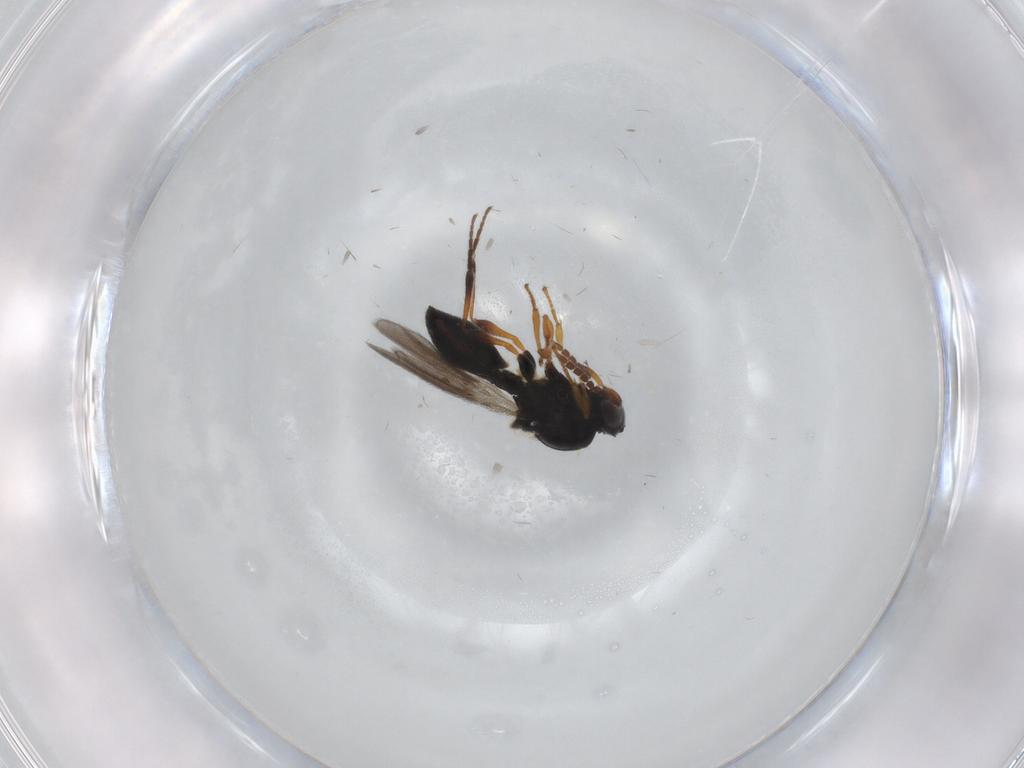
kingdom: Animalia
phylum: Arthropoda
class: Insecta
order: Hymenoptera
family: Platygastridae
